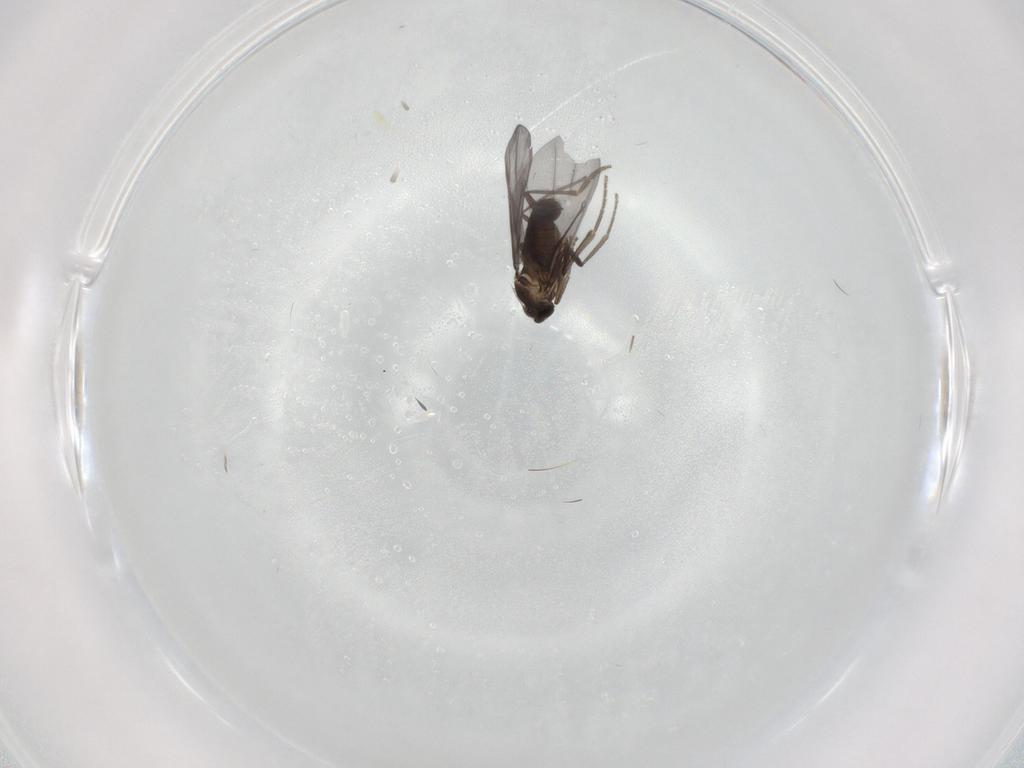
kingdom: Animalia
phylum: Arthropoda
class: Insecta
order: Diptera
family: Phoridae
